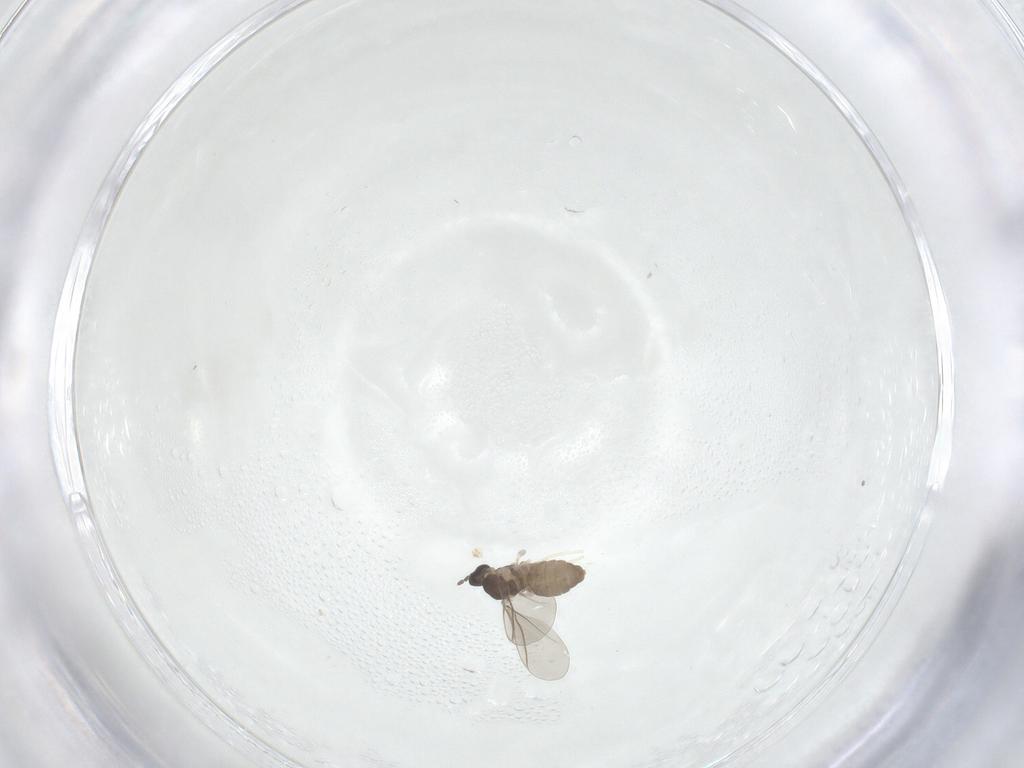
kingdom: Animalia
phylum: Arthropoda
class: Insecta
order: Diptera
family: Cecidomyiidae
